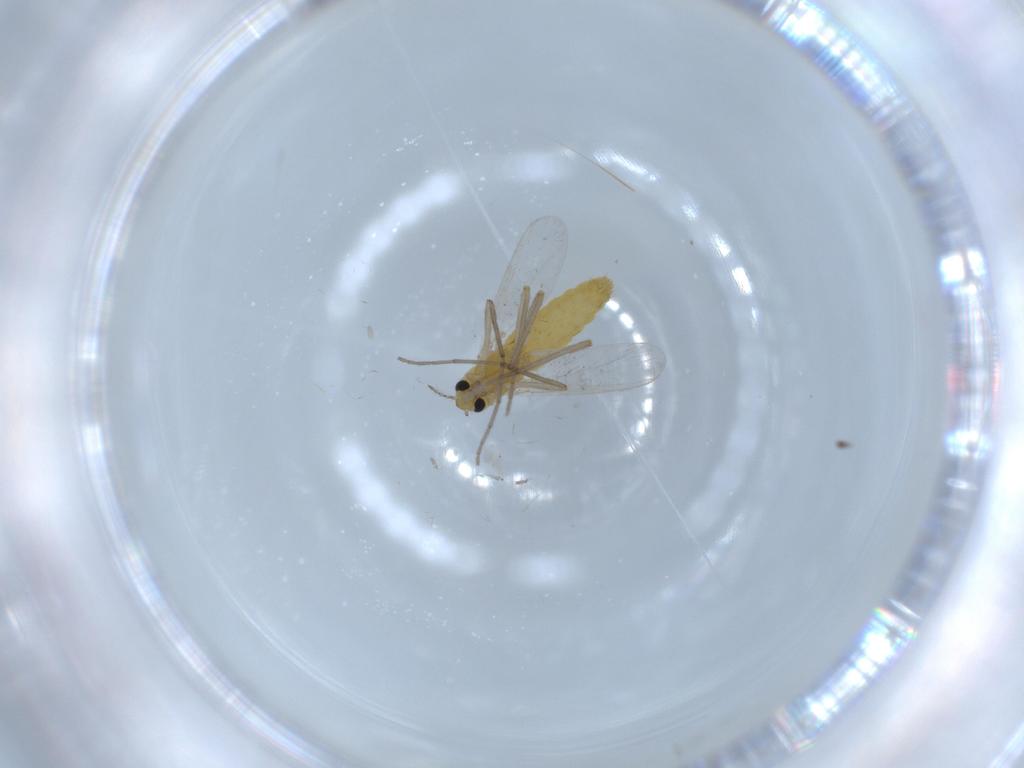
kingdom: Animalia
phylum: Arthropoda
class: Insecta
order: Diptera
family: Chironomidae
